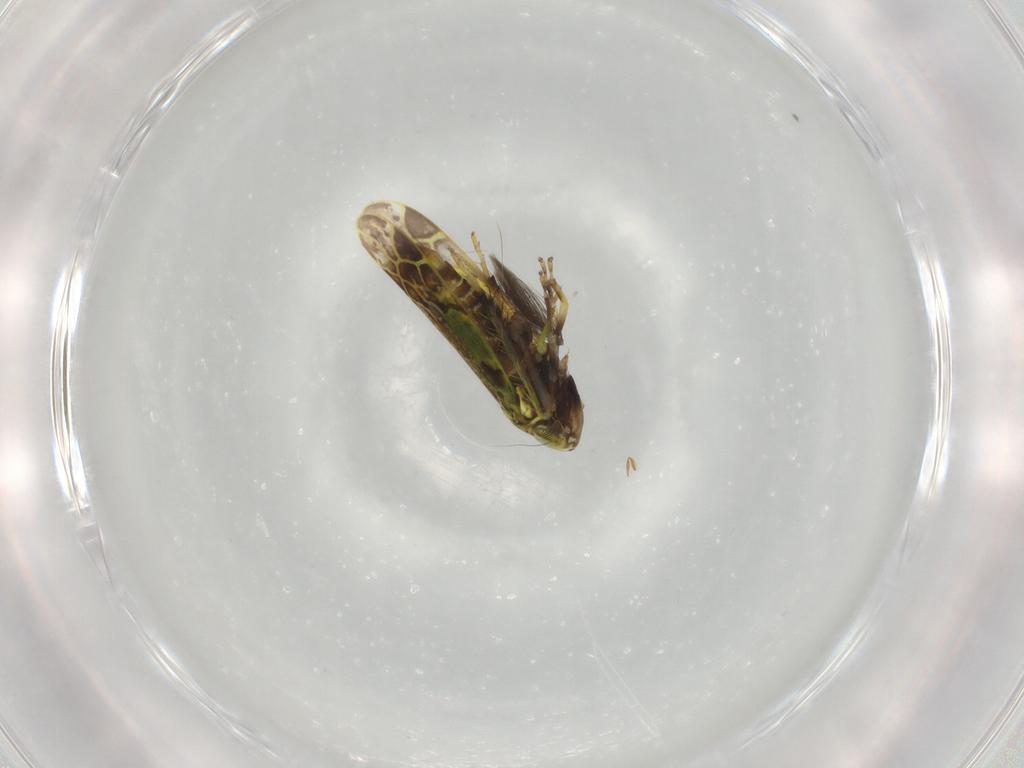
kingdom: Animalia
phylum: Arthropoda
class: Insecta
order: Hemiptera
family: Cicadellidae
